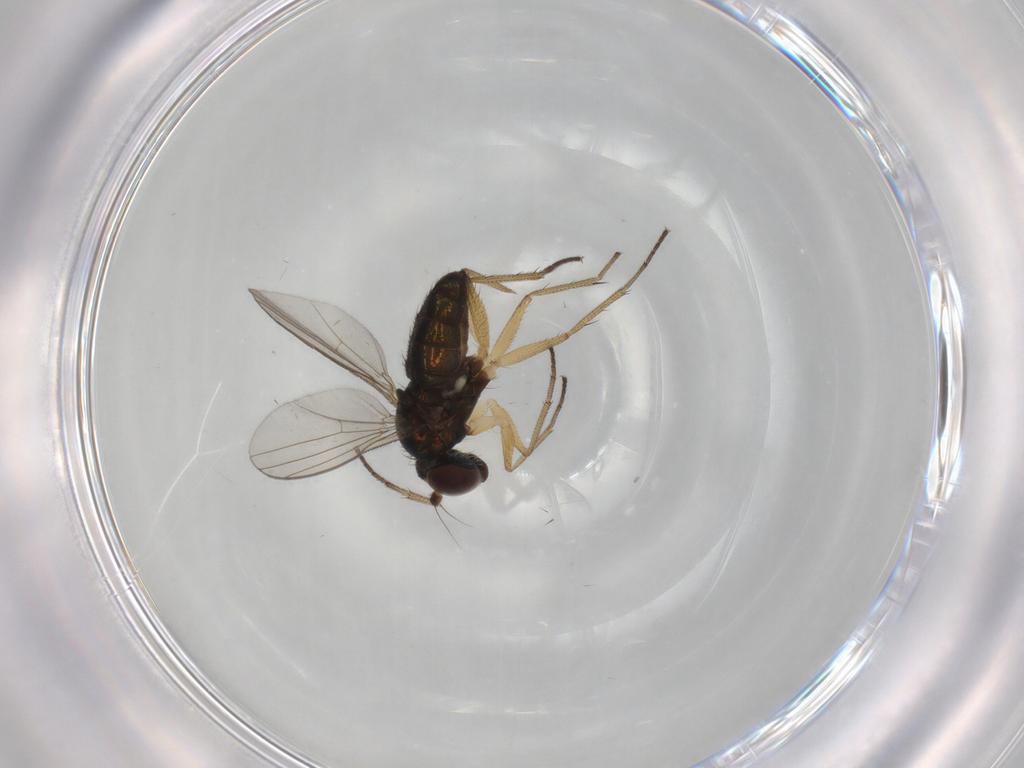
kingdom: Animalia
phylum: Arthropoda
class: Insecta
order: Diptera
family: Dolichopodidae
